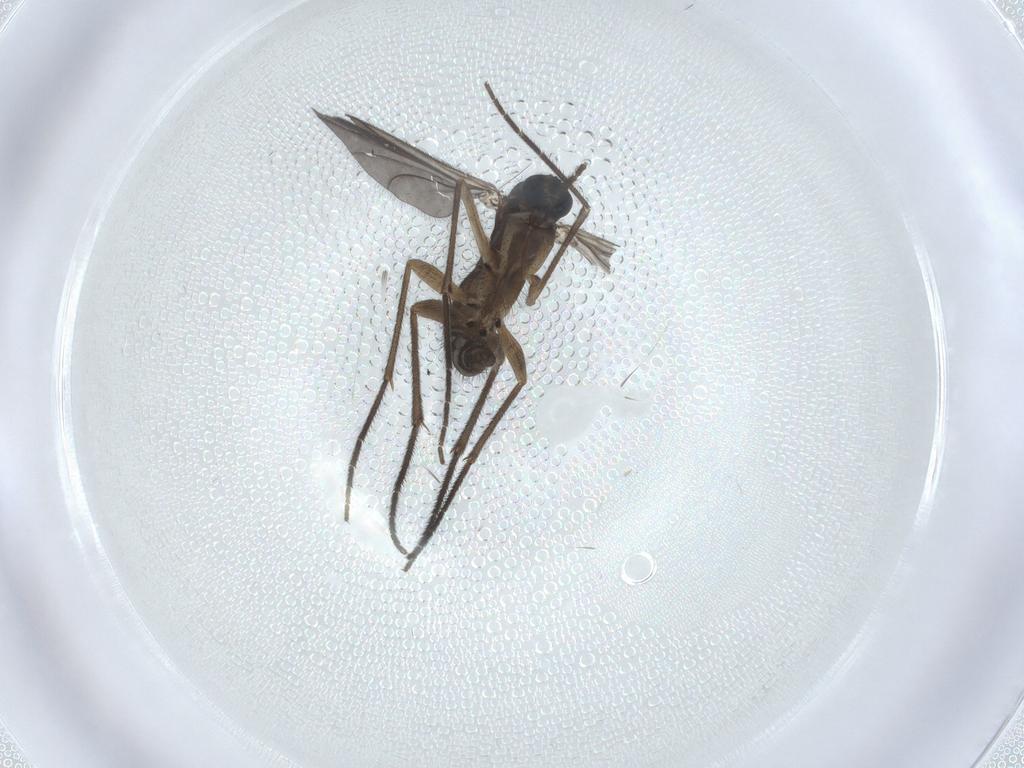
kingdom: Animalia
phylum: Arthropoda
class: Insecta
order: Diptera
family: Sciaridae
